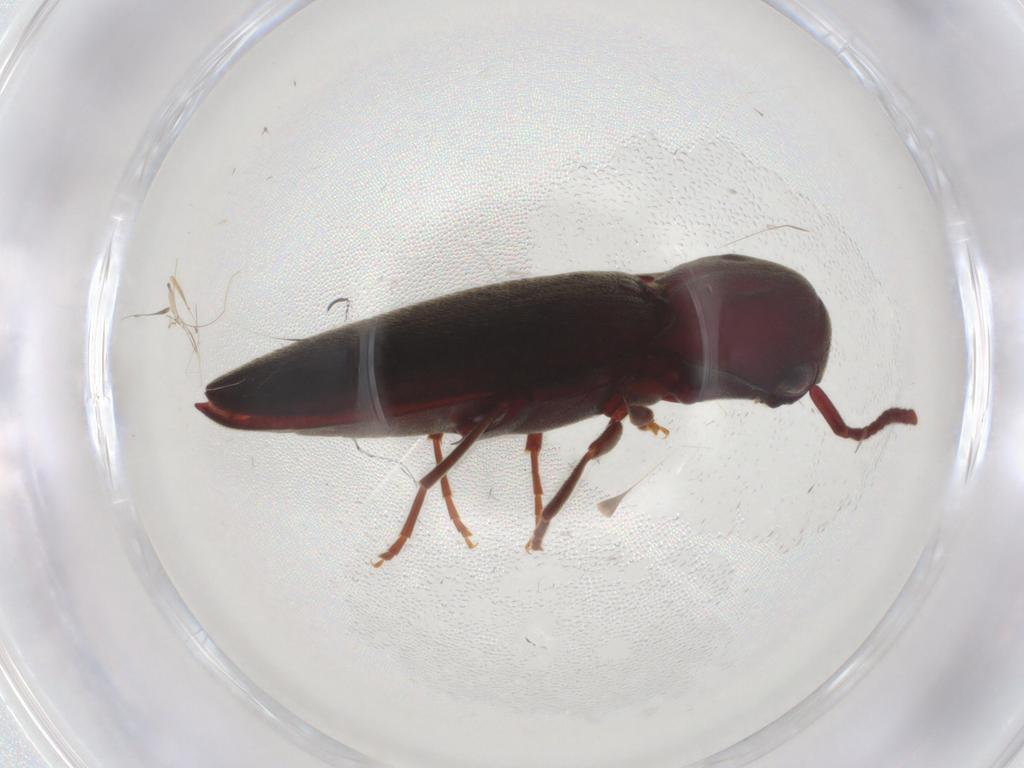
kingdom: Animalia
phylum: Arthropoda
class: Insecta
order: Coleoptera
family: Eucnemidae
